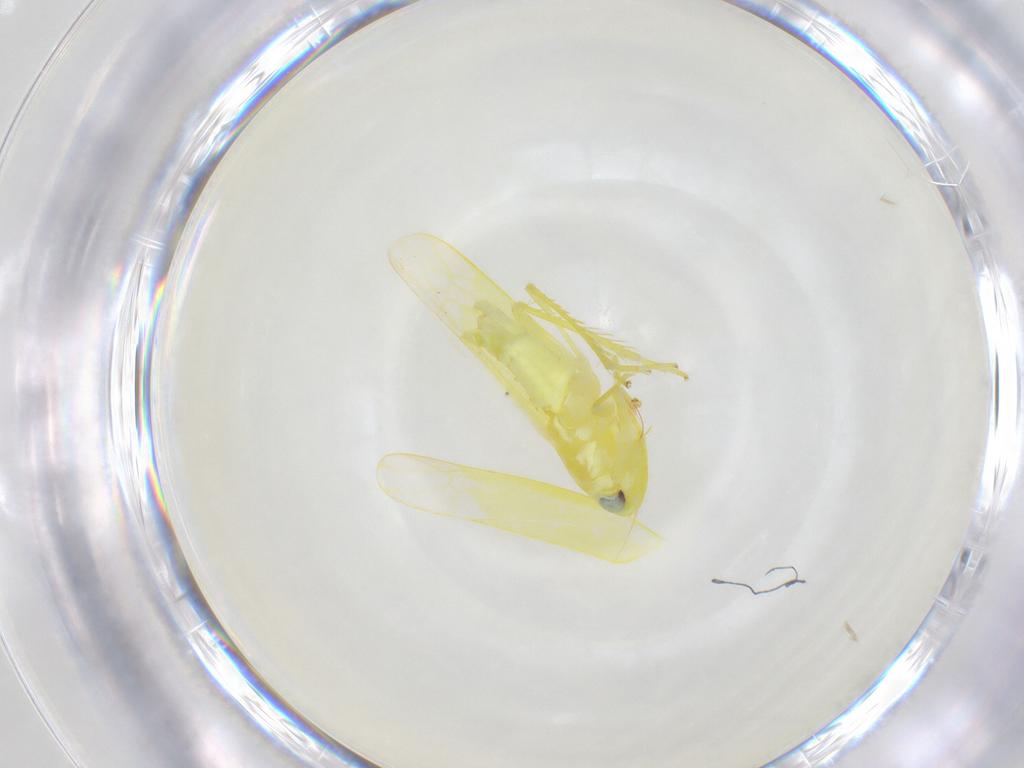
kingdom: Animalia
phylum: Arthropoda
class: Insecta
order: Hemiptera
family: Cicadellidae
